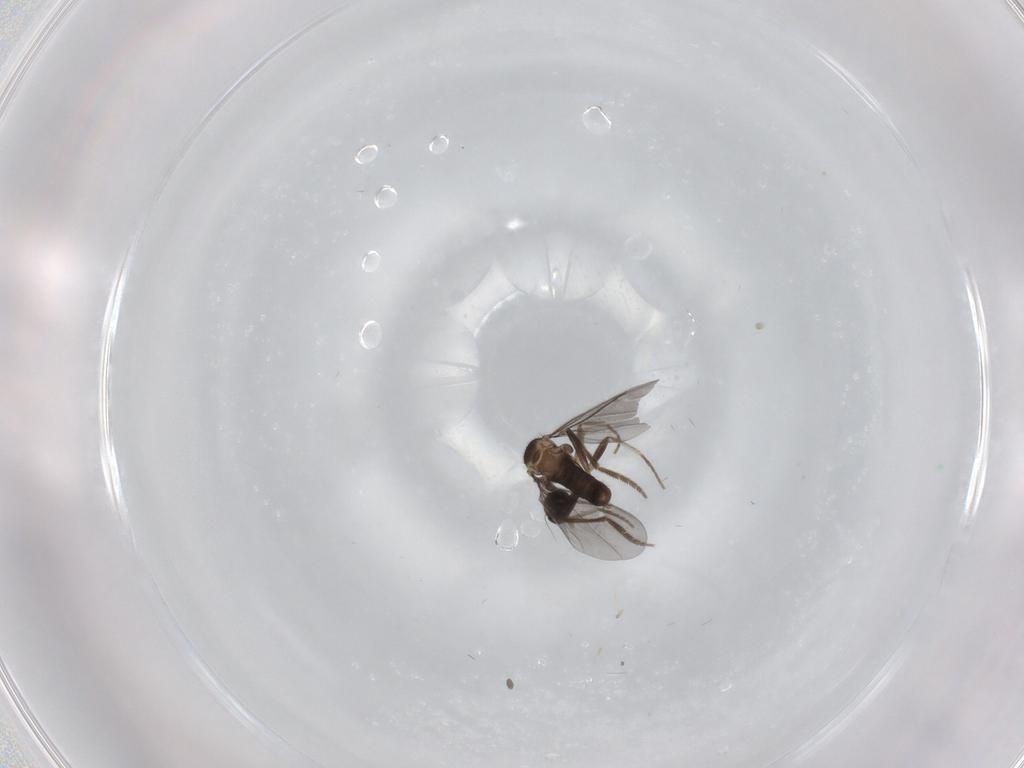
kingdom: Animalia
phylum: Arthropoda
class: Insecta
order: Diptera
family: Phoridae
